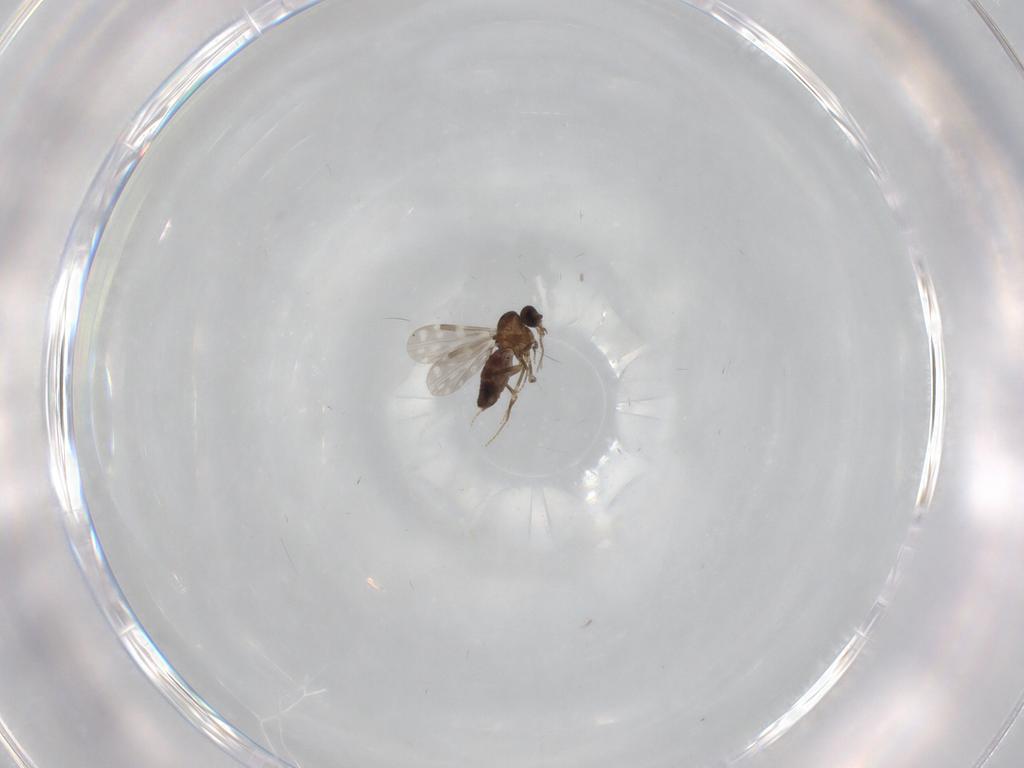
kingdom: Animalia
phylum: Arthropoda
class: Insecta
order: Diptera
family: Ceratopogonidae
